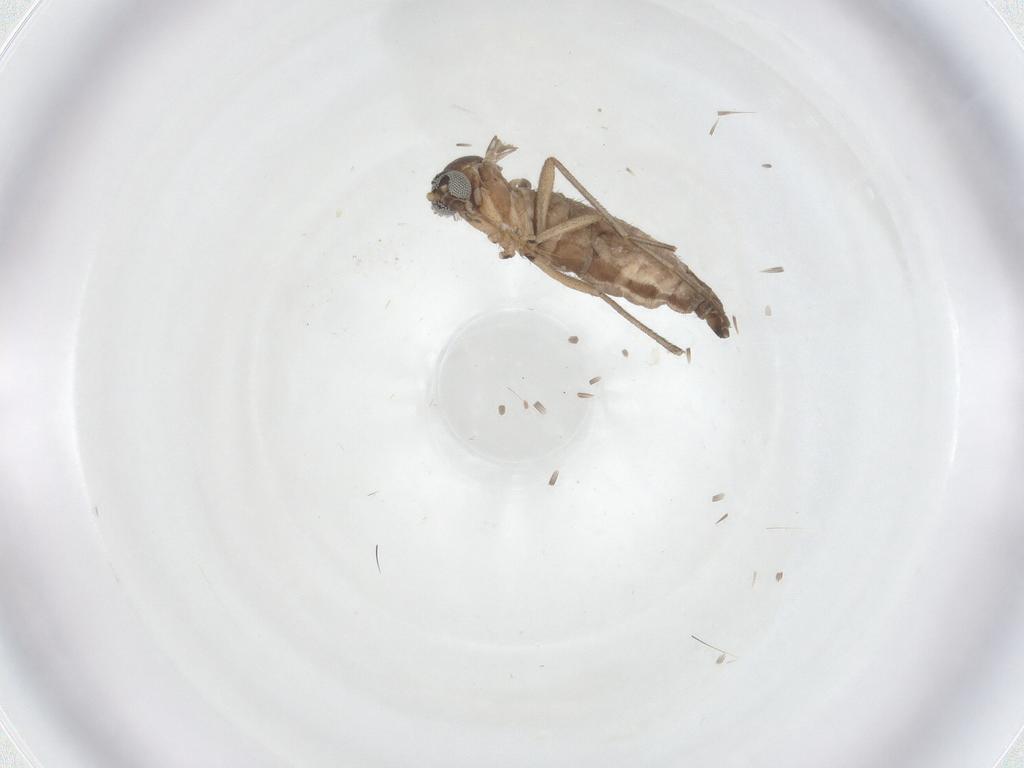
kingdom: Animalia
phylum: Arthropoda
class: Insecta
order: Diptera
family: Sciaridae
